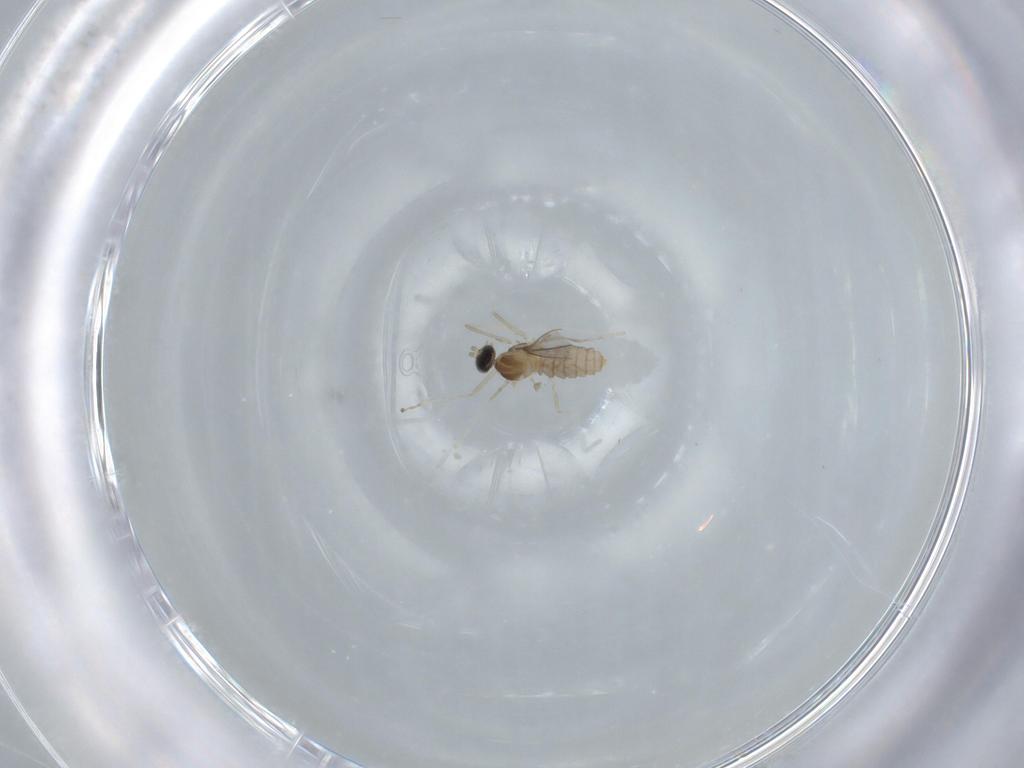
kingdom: Animalia
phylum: Arthropoda
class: Insecta
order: Diptera
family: Cecidomyiidae
